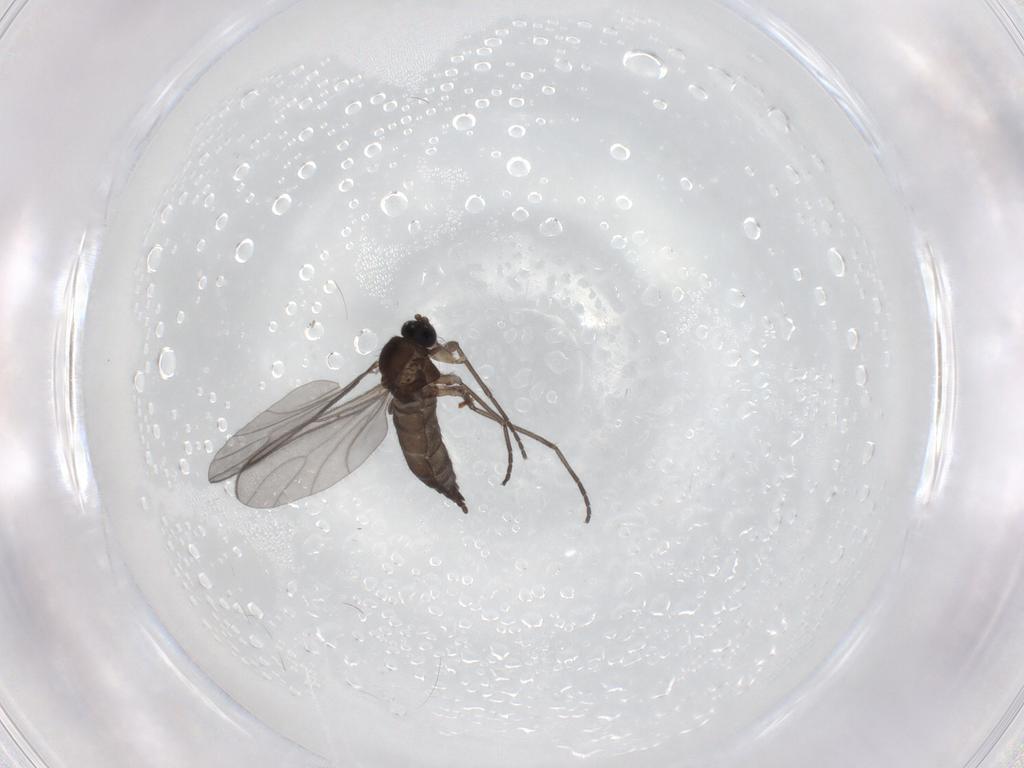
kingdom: Animalia
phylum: Arthropoda
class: Insecta
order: Diptera
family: Sciaridae
